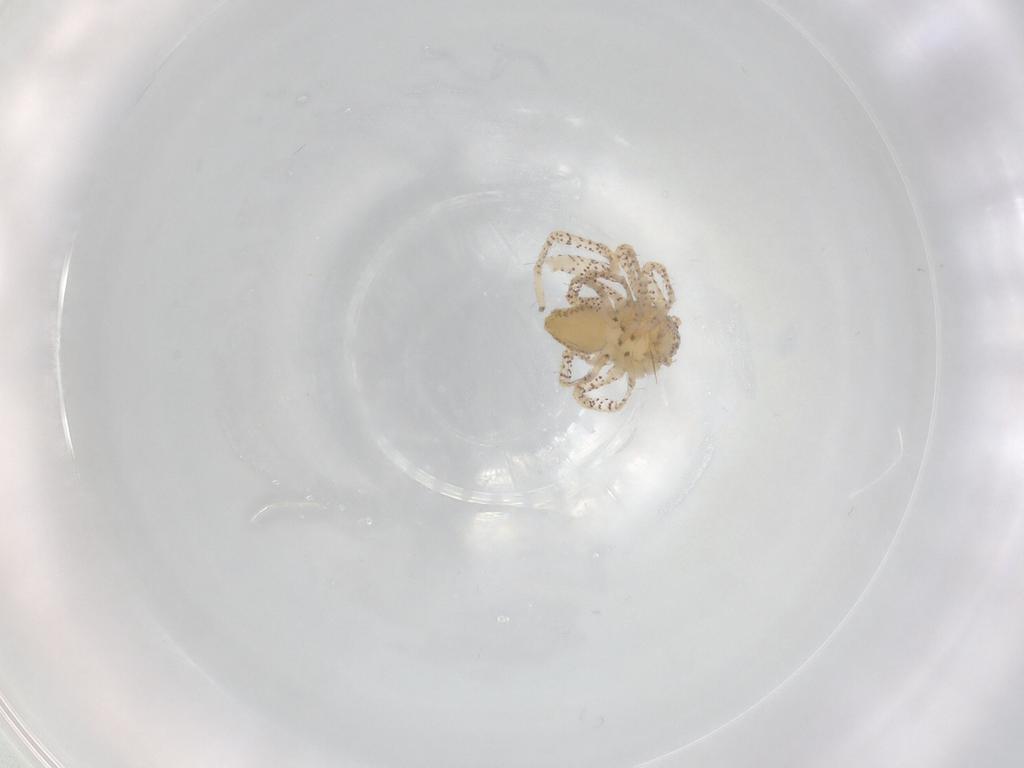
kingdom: Animalia
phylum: Arthropoda
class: Arachnida
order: Araneae
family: Philodromidae
